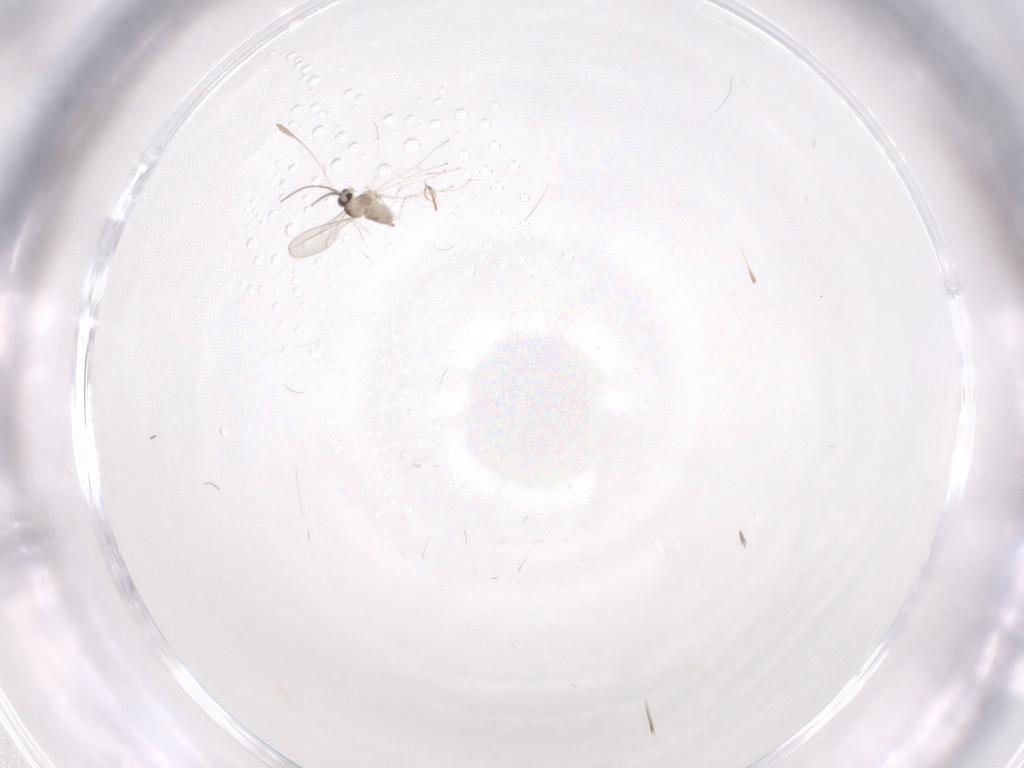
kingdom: Animalia
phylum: Arthropoda
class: Insecta
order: Diptera
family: Cecidomyiidae
